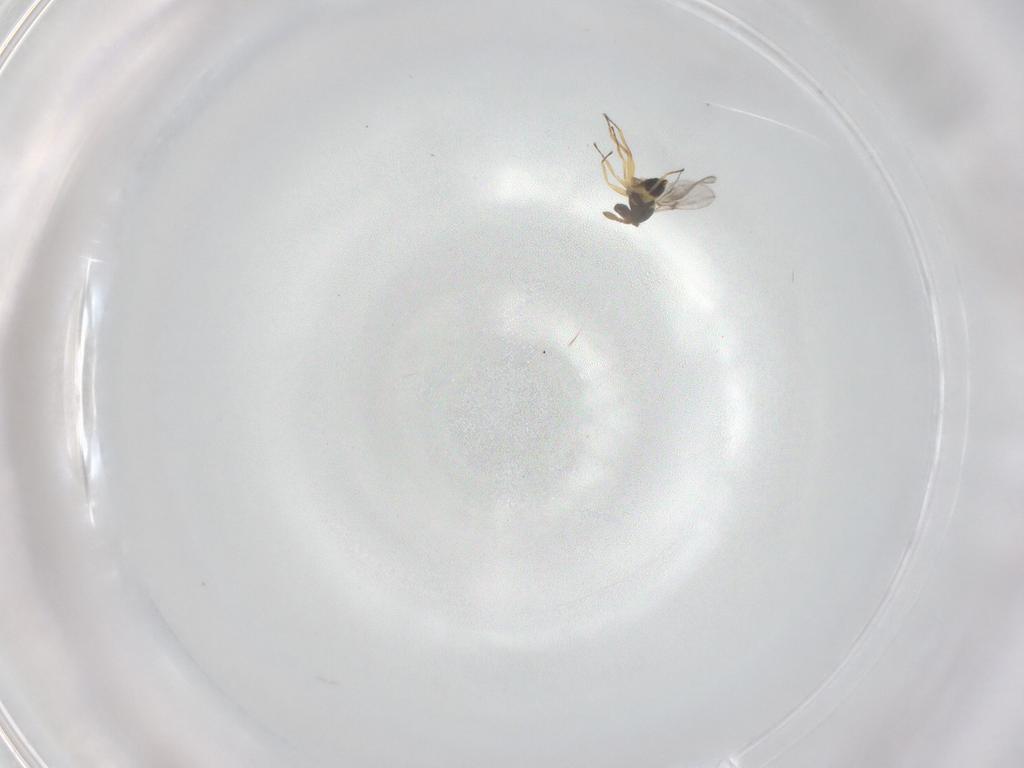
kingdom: Animalia
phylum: Arthropoda
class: Insecta
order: Hymenoptera
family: Eulophidae
